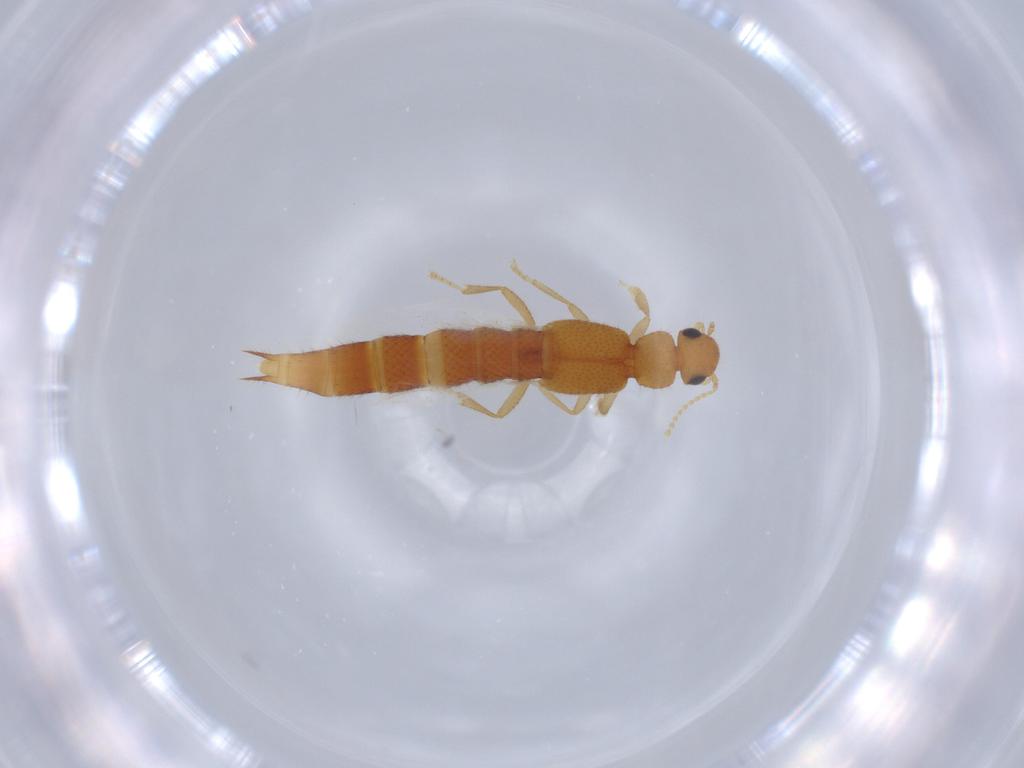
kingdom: Animalia
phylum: Arthropoda
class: Insecta
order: Coleoptera
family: Staphylinidae
